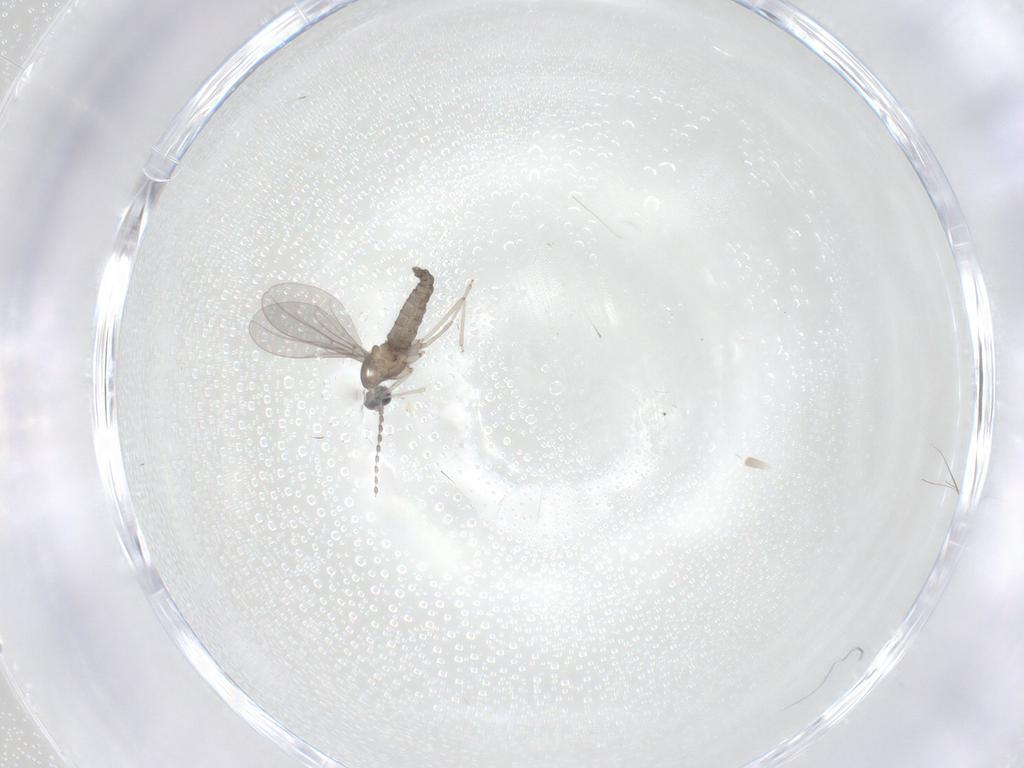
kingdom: Animalia
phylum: Arthropoda
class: Insecta
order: Diptera
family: Cecidomyiidae
